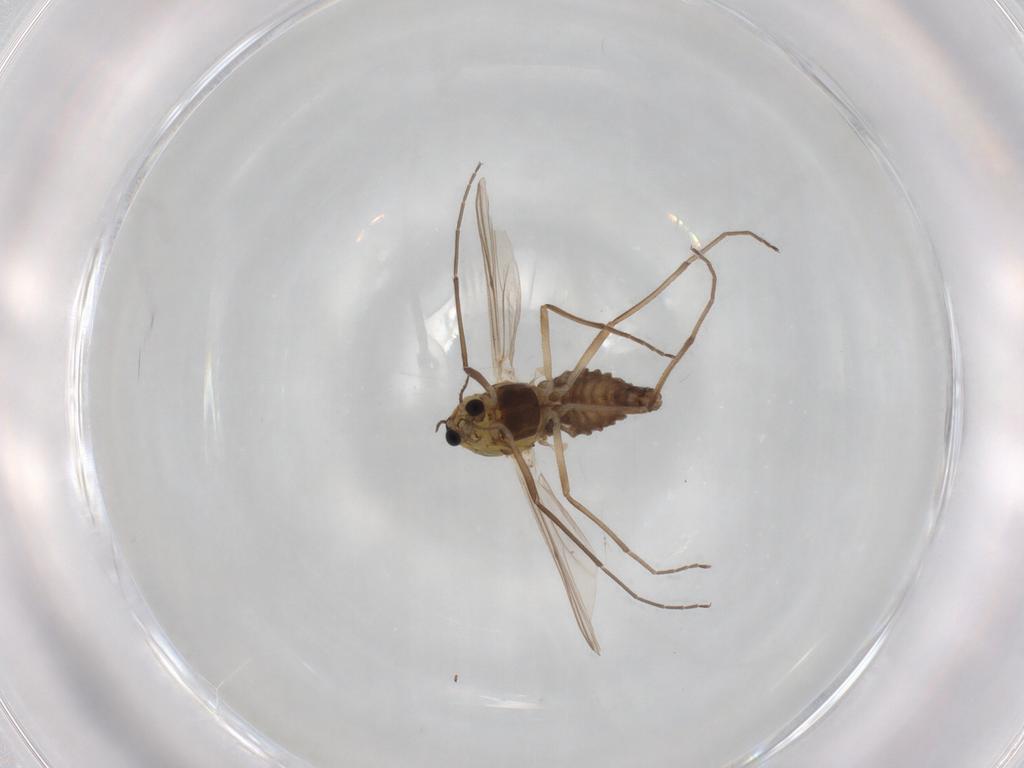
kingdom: Animalia
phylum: Arthropoda
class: Insecta
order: Diptera
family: Chironomidae
